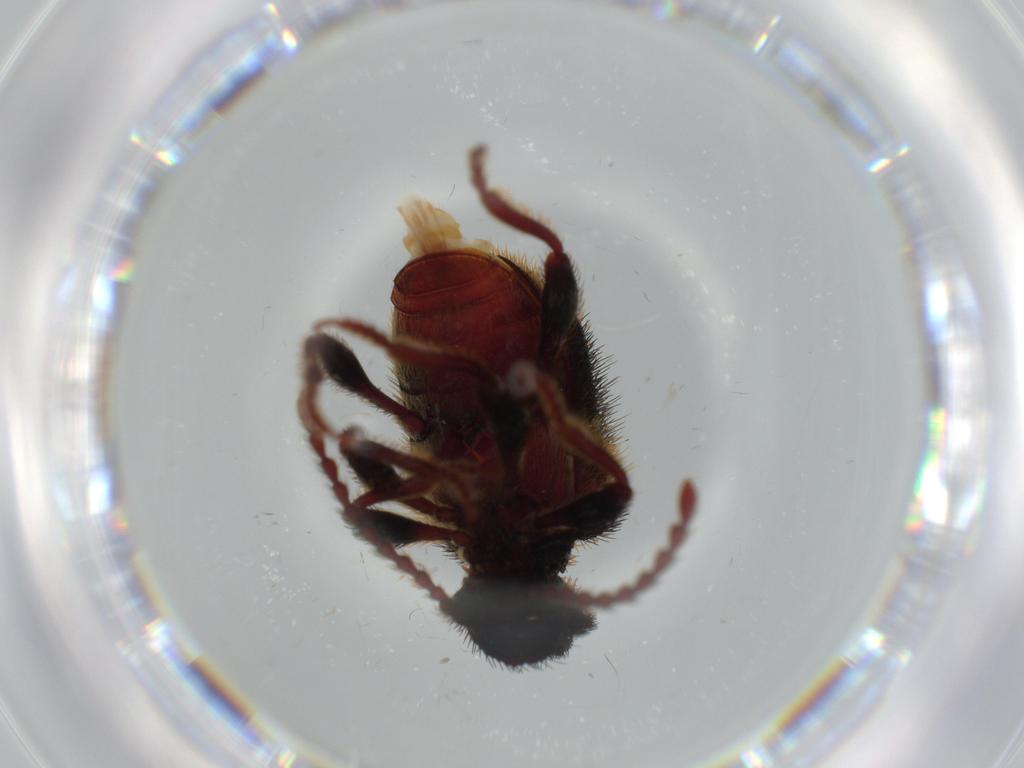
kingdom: Animalia
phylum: Arthropoda
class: Insecta
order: Coleoptera
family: Ptinidae
